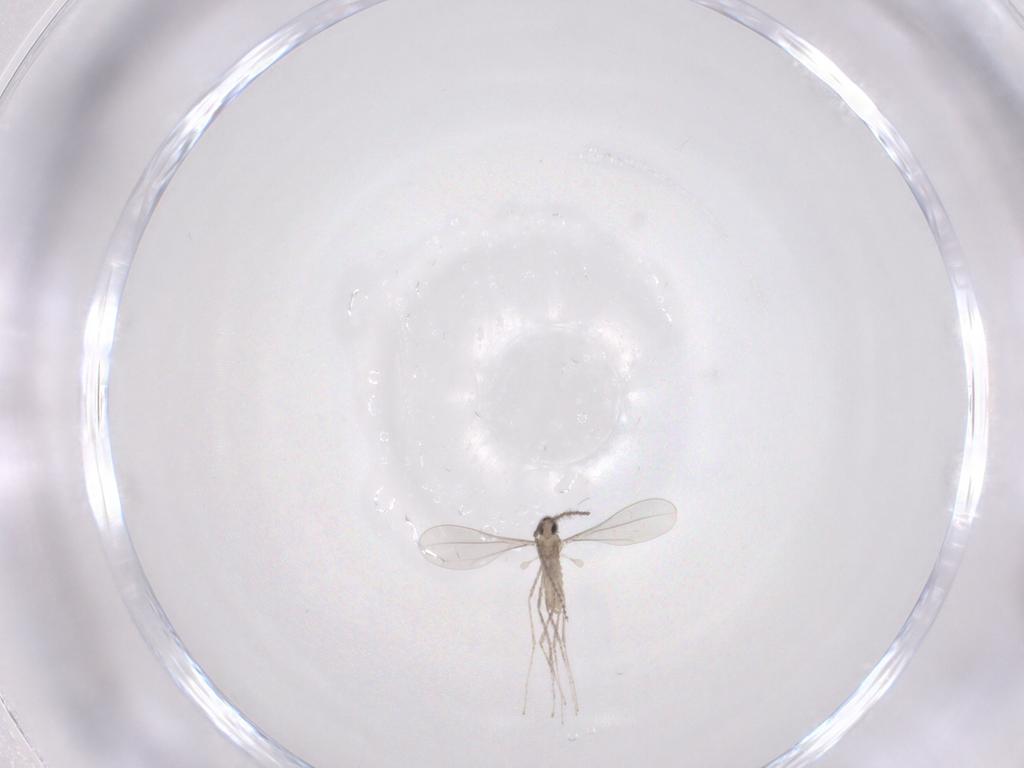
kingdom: Animalia
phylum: Arthropoda
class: Insecta
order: Diptera
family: Cecidomyiidae
